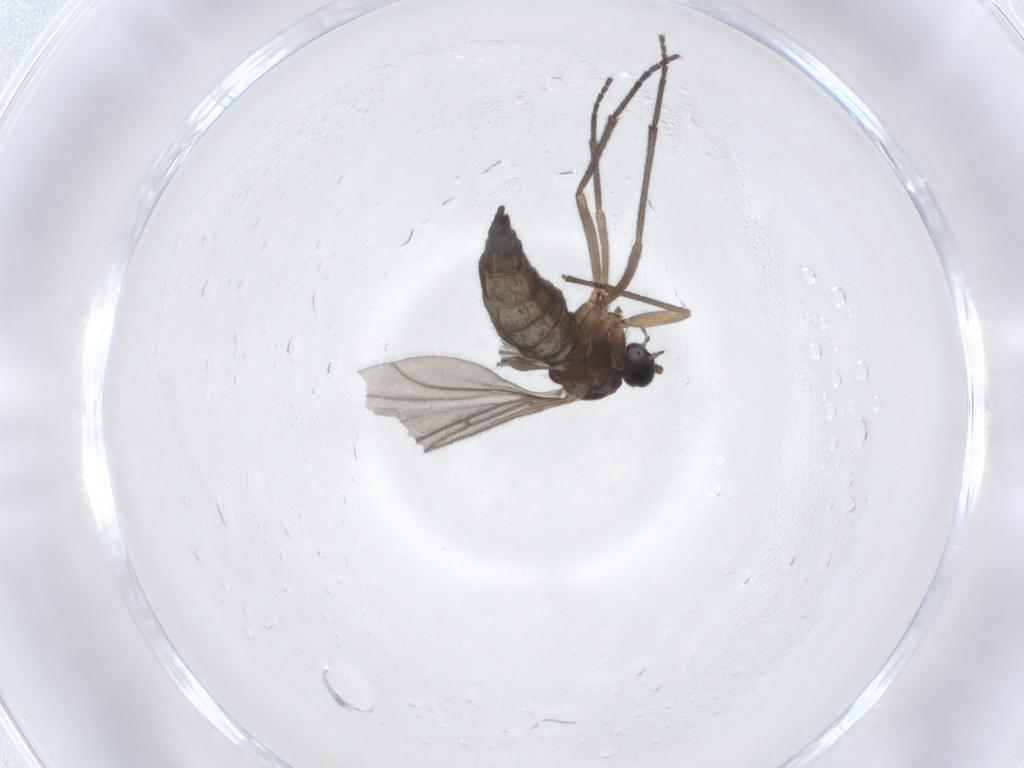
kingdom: Animalia
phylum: Arthropoda
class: Insecta
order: Diptera
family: Sciaridae
